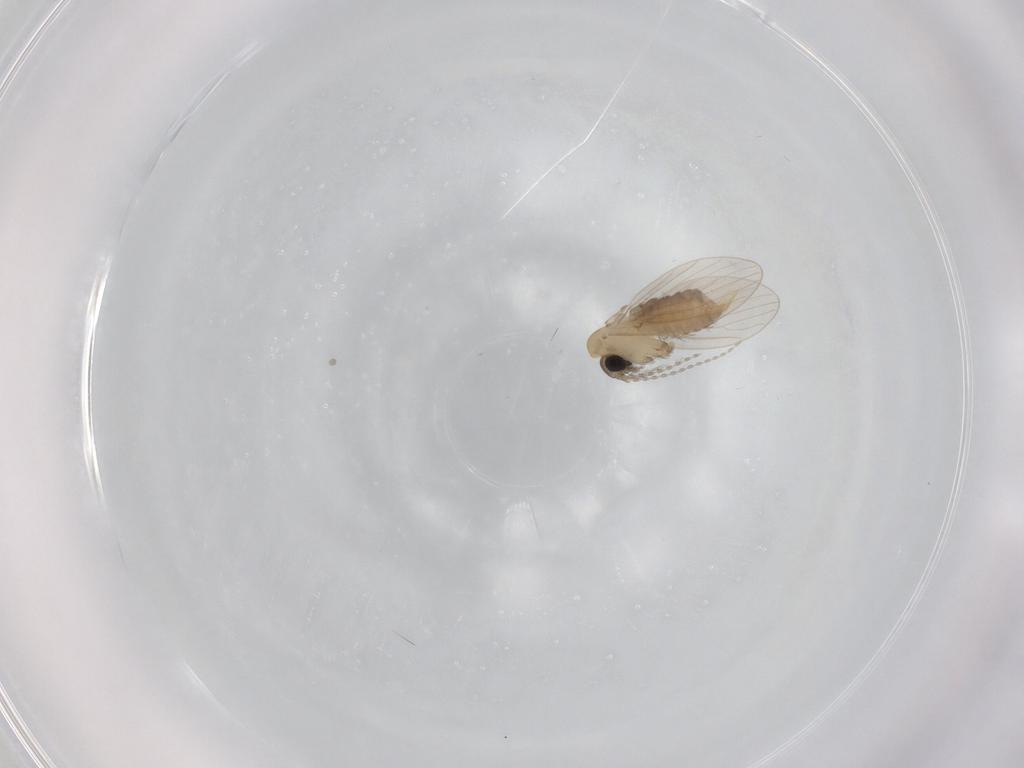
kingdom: Animalia
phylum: Arthropoda
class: Insecta
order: Diptera
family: Psychodidae
